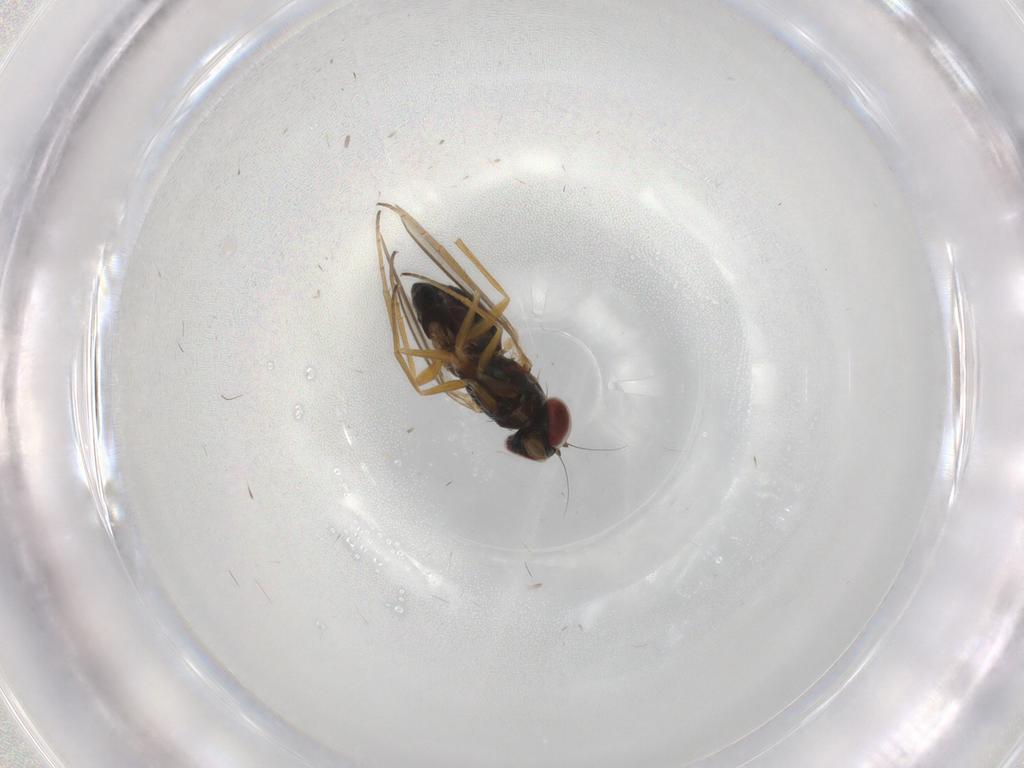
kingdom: Animalia
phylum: Arthropoda
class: Insecta
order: Diptera
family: Dolichopodidae
